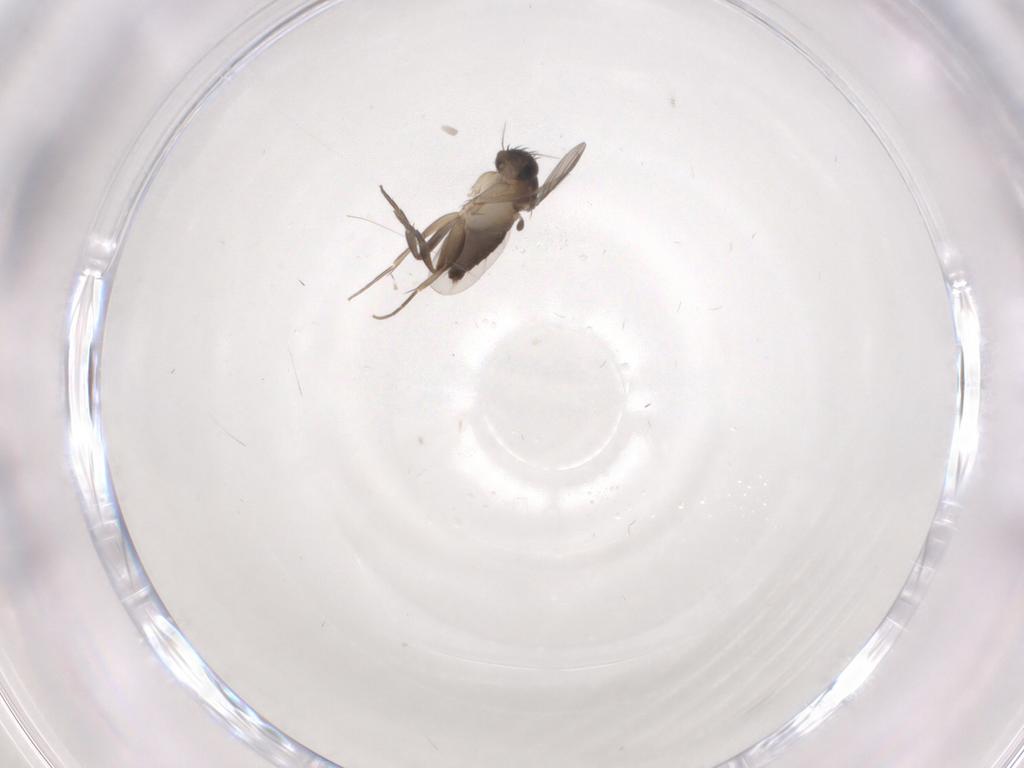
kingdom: Animalia
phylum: Arthropoda
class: Insecta
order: Diptera
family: Phoridae
